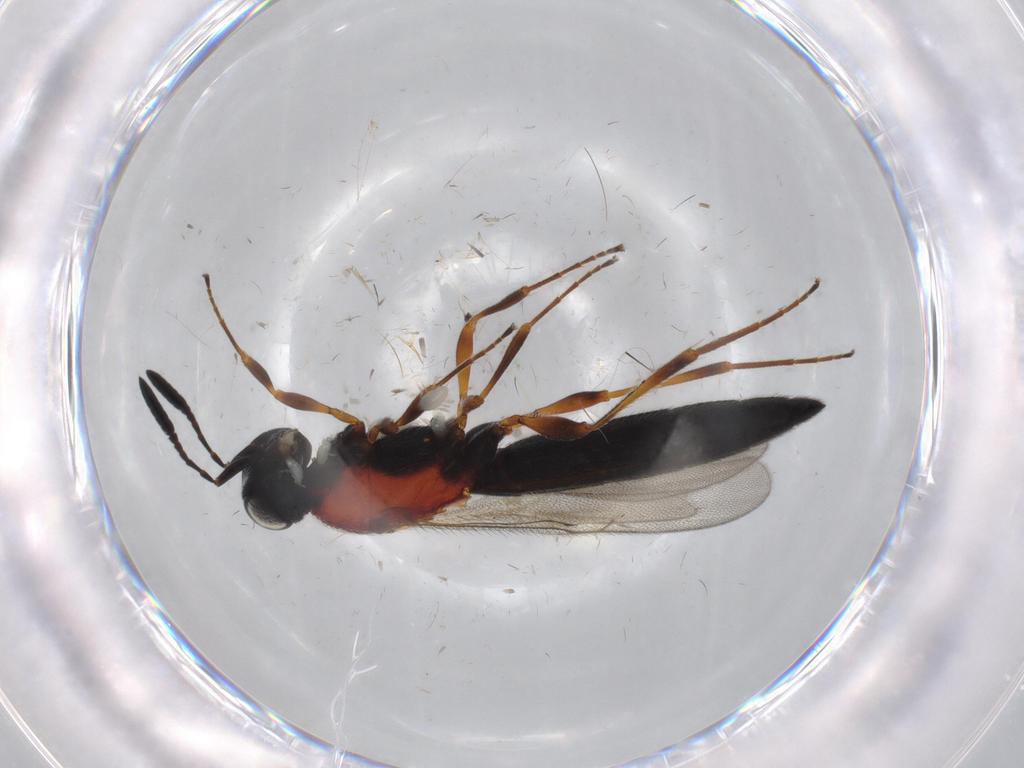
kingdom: Animalia
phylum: Arthropoda
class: Insecta
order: Hymenoptera
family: Scelionidae
